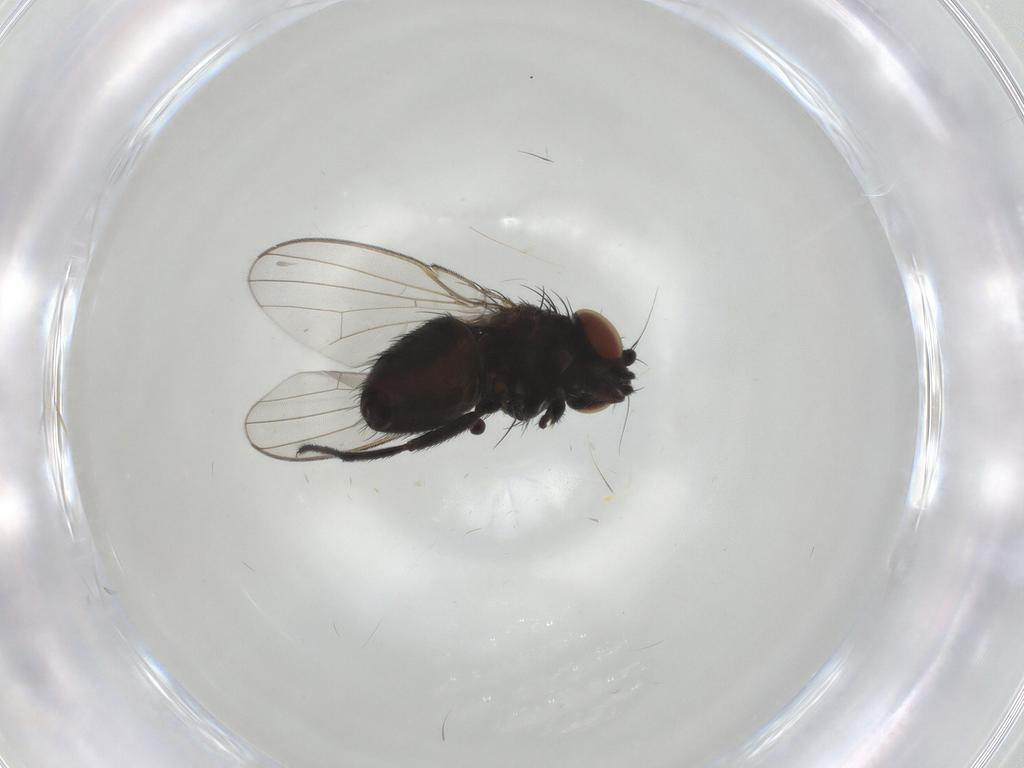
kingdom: Animalia
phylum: Arthropoda
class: Insecta
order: Diptera
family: Milichiidae
